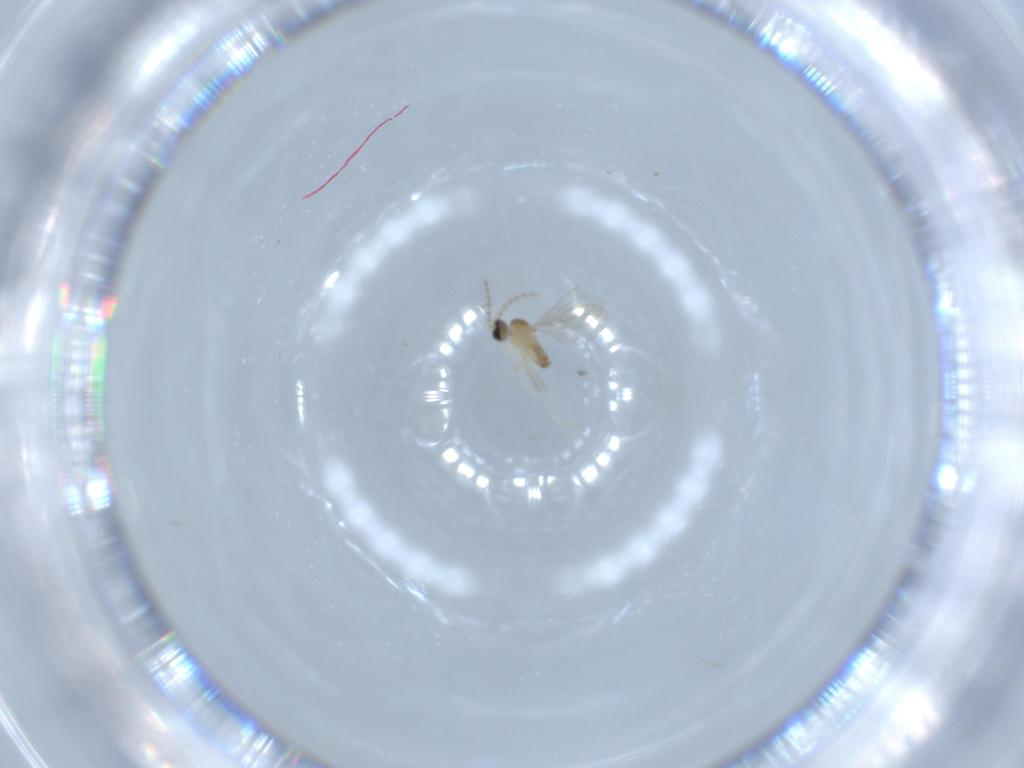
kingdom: Animalia
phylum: Arthropoda
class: Insecta
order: Diptera
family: Cecidomyiidae
